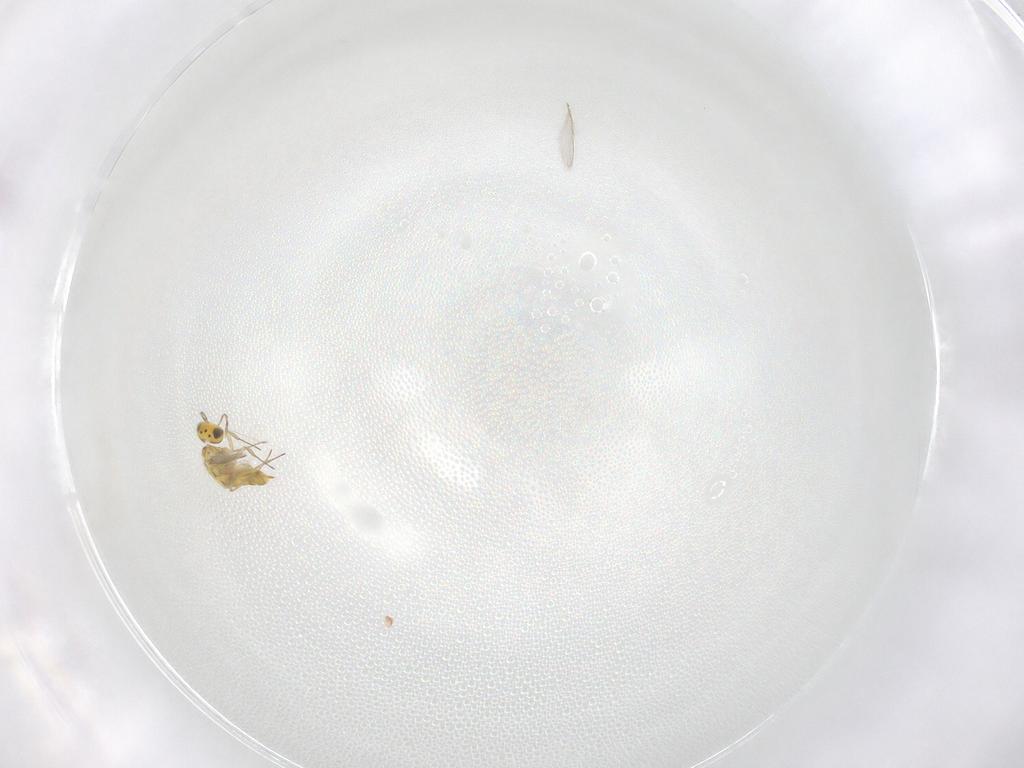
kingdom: Animalia
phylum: Arthropoda
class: Insecta
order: Hymenoptera
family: Aphelinidae
